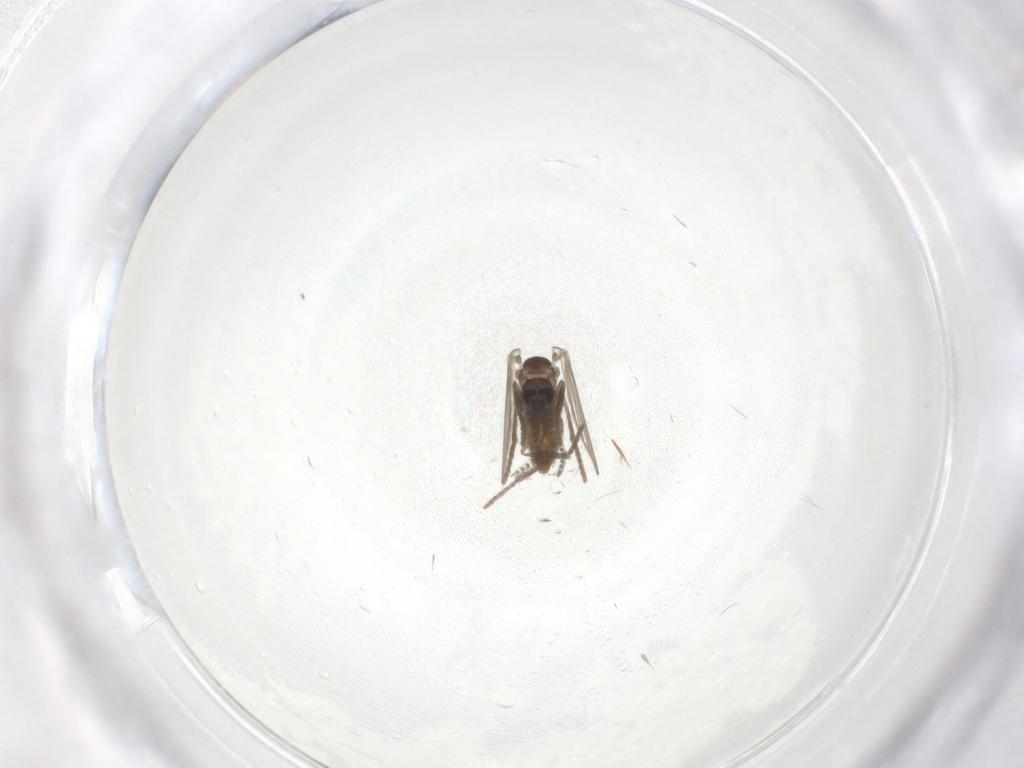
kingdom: Animalia
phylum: Arthropoda
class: Insecta
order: Diptera
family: Psychodidae
